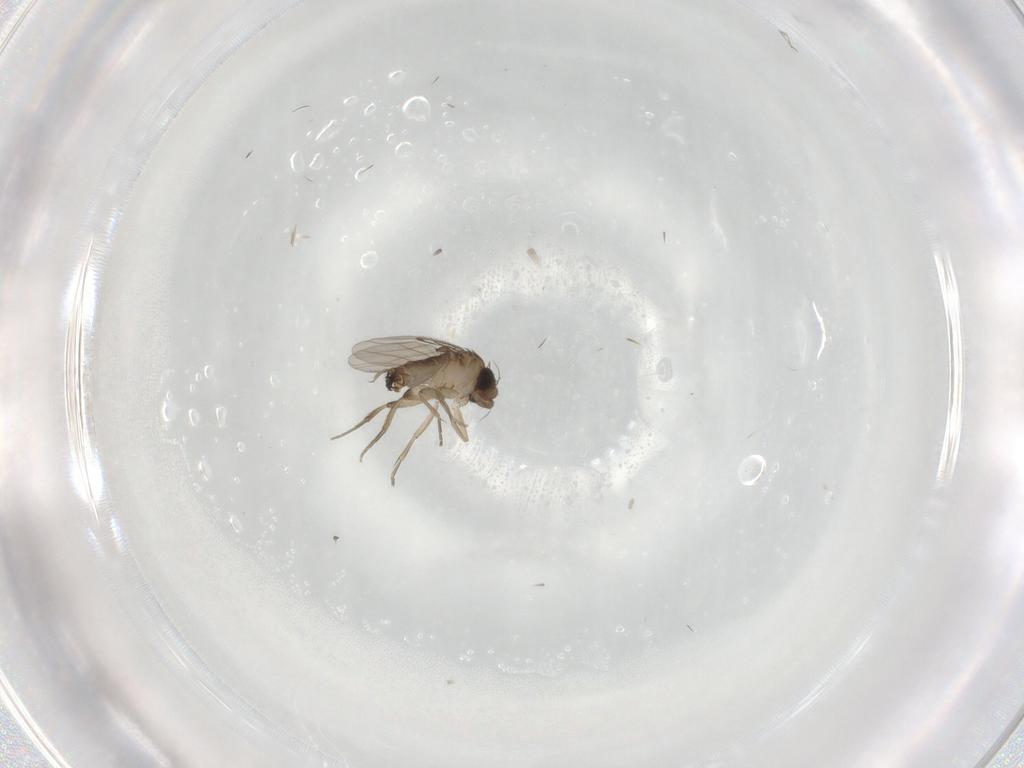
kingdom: Animalia
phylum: Arthropoda
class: Insecta
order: Diptera
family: Phoridae
